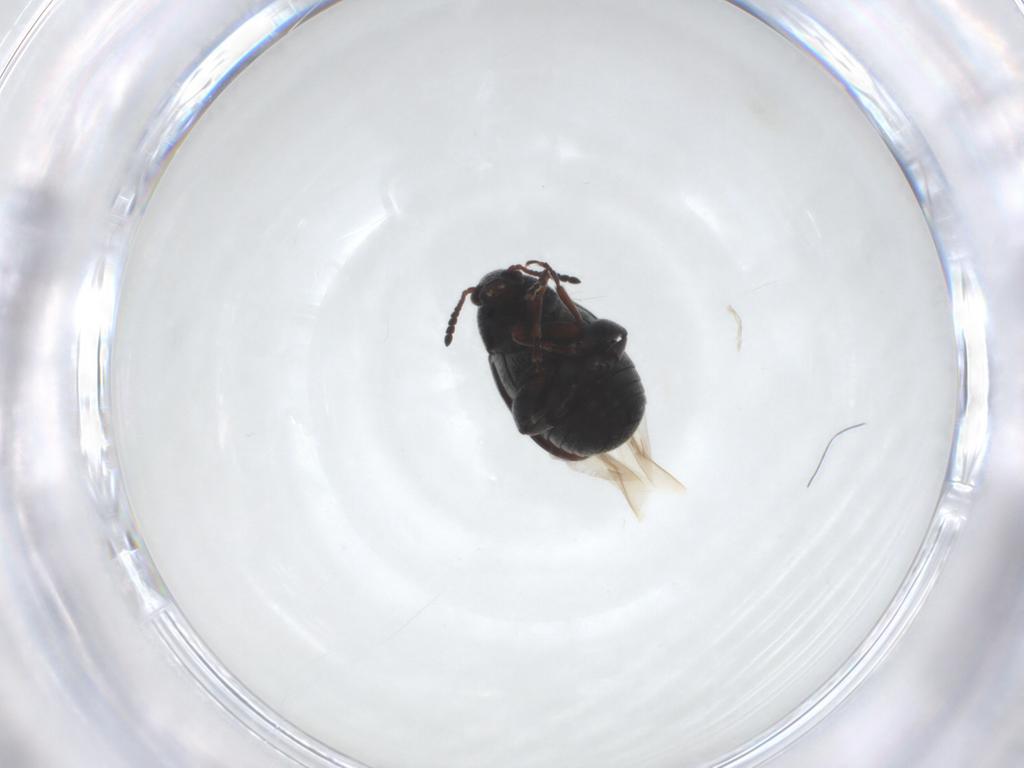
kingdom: Animalia
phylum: Arthropoda
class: Insecta
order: Coleoptera
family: Chrysomelidae
